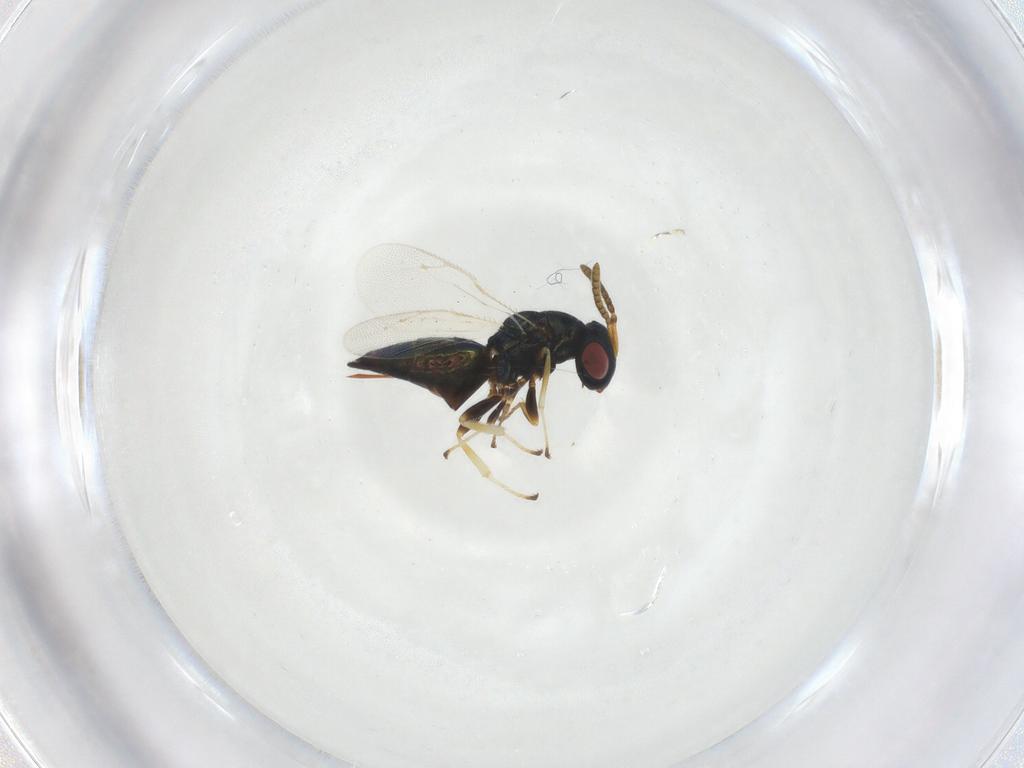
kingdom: Animalia
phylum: Arthropoda
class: Insecta
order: Hymenoptera
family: Pteromalidae
